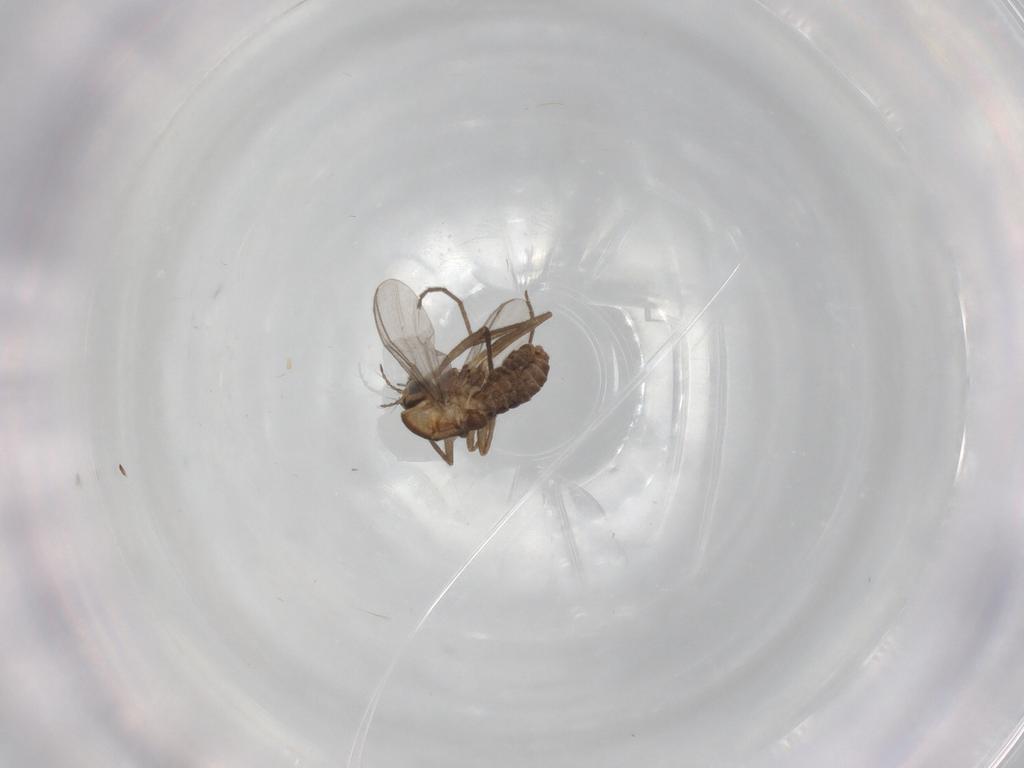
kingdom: Animalia
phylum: Arthropoda
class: Insecta
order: Diptera
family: Chironomidae
